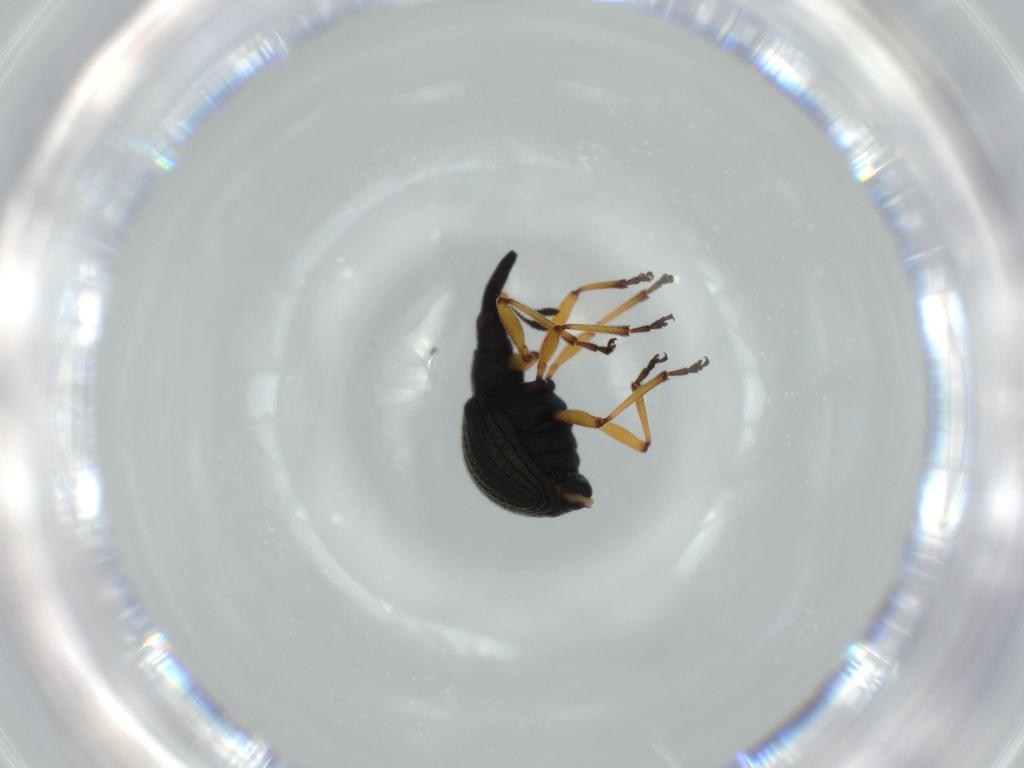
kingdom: Animalia
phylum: Arthropoda
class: Insecta
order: Coleoptera
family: Brentidae
